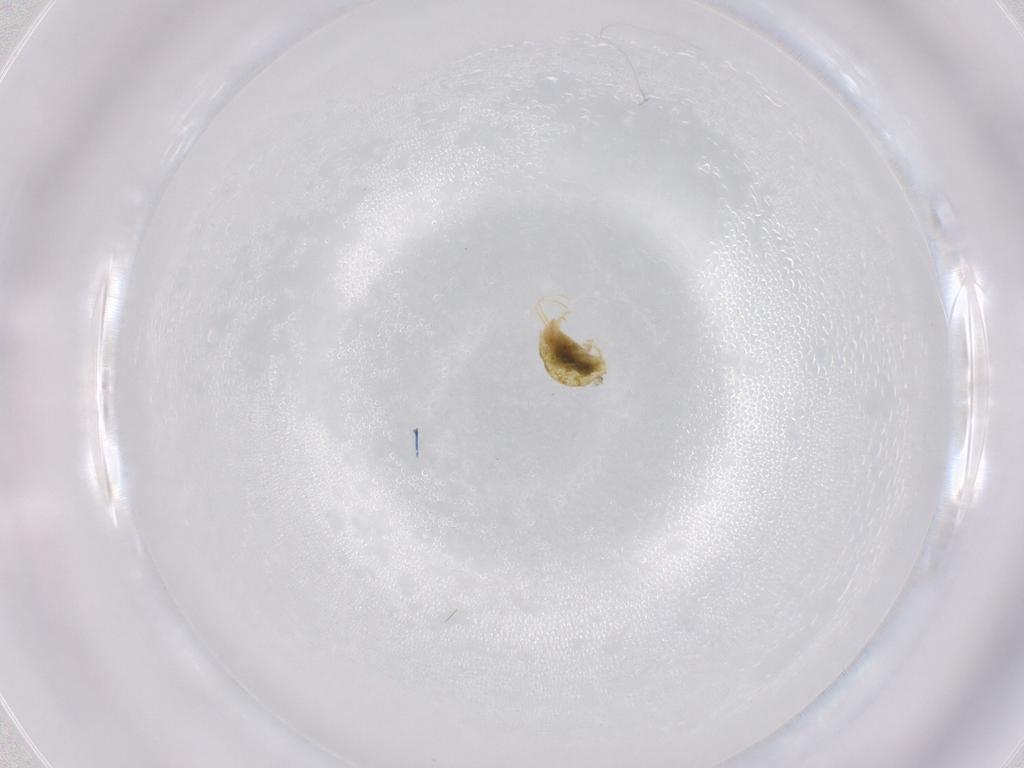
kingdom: Animalia
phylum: Arthropoda
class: Arachnida
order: Trombidiformes
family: Tetranychidae
